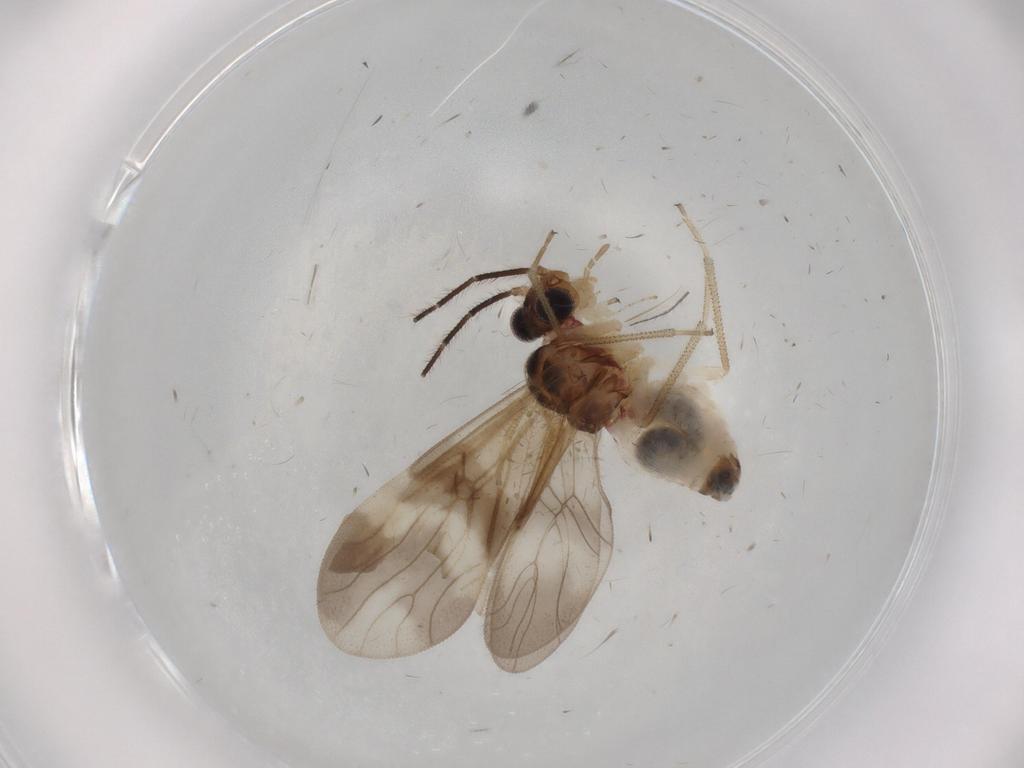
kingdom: Animalia
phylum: Arthropoda
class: Insecta
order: Psocodea
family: Amphipsocidae
